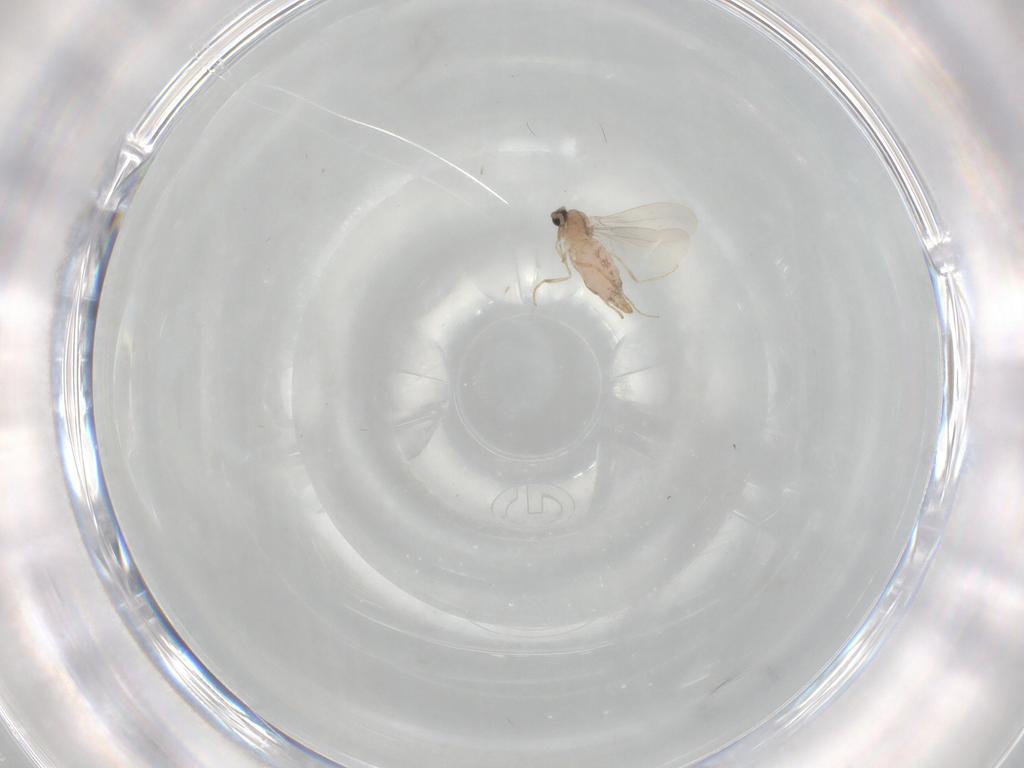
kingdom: Animalia
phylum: Arthropoda
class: Insecta
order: Diptera
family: Cecidomyiidae
